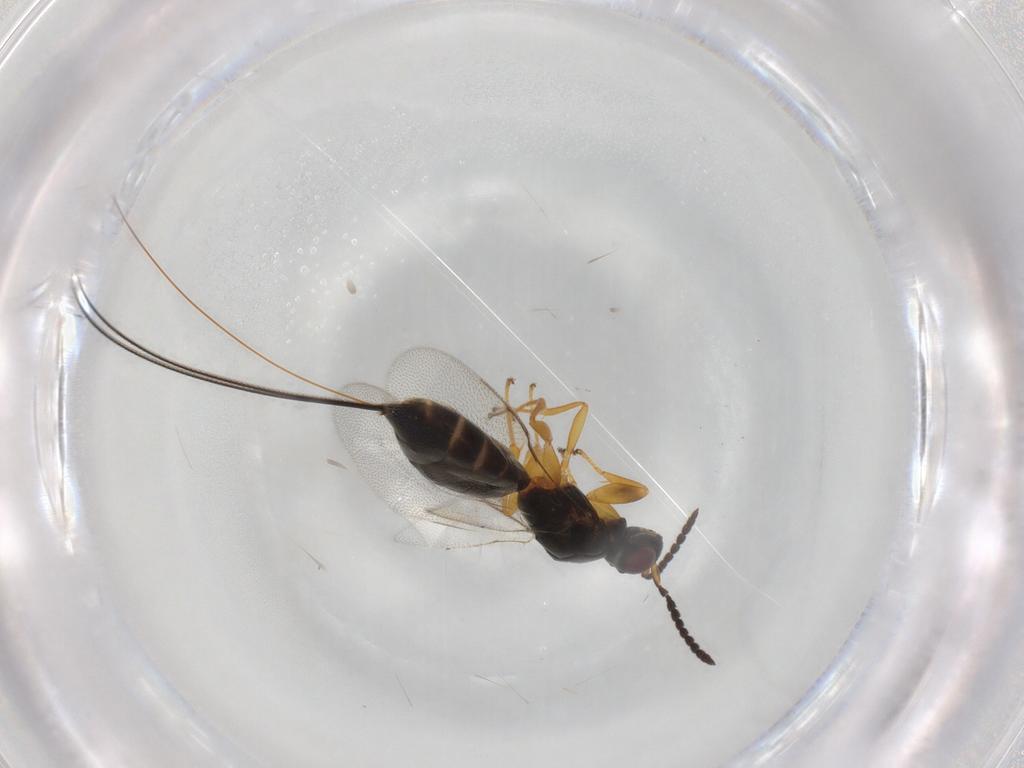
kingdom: Animalia
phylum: Arthropoda
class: Insecta
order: Hymenoptera
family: Pteromalidae
